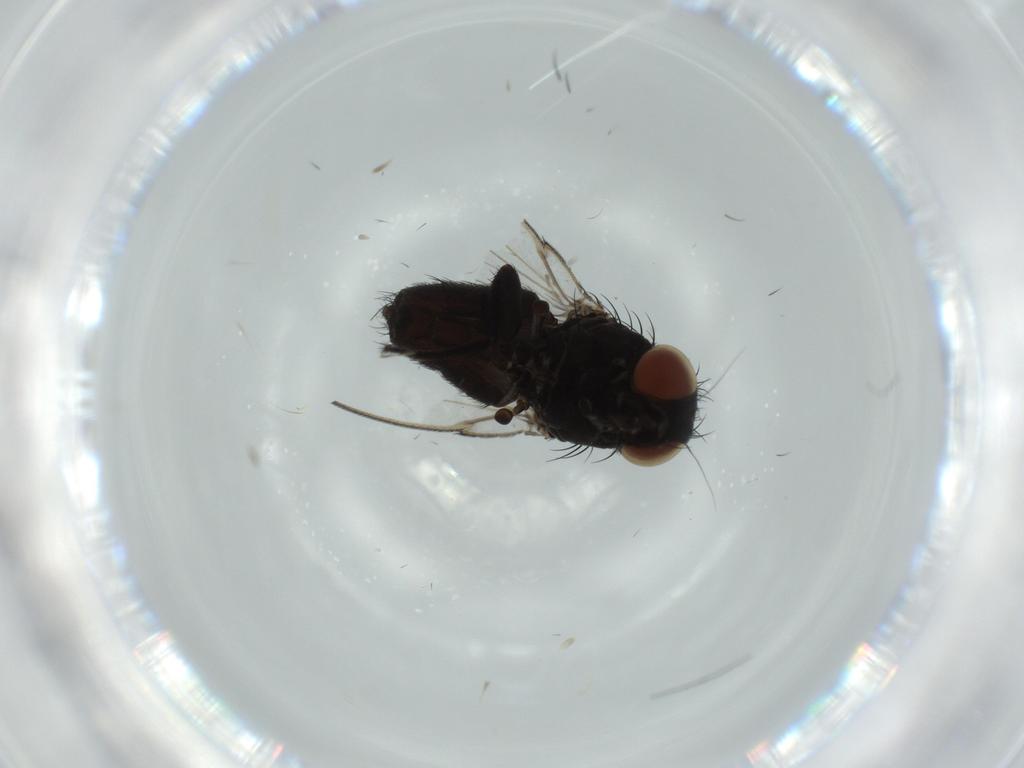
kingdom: Animalia
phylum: Arthropoda
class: Insecta
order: Diptera
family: Milichiidae
